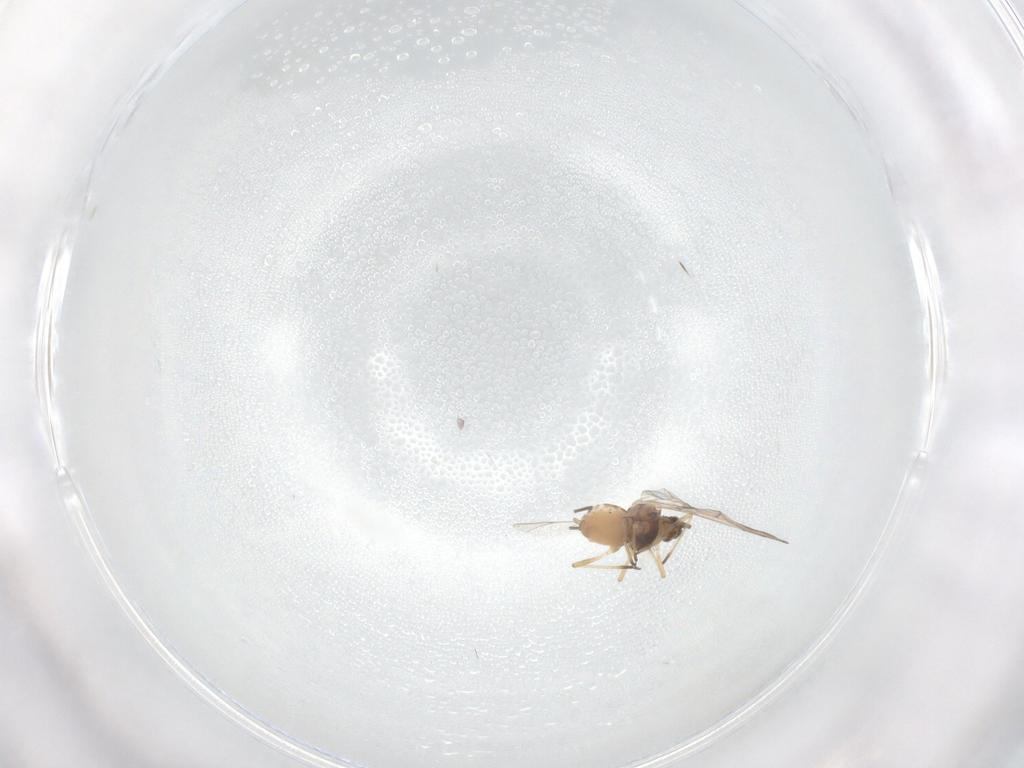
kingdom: Animalia
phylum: Arthropoda
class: Insecta
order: Hemiptera
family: Aphididae
